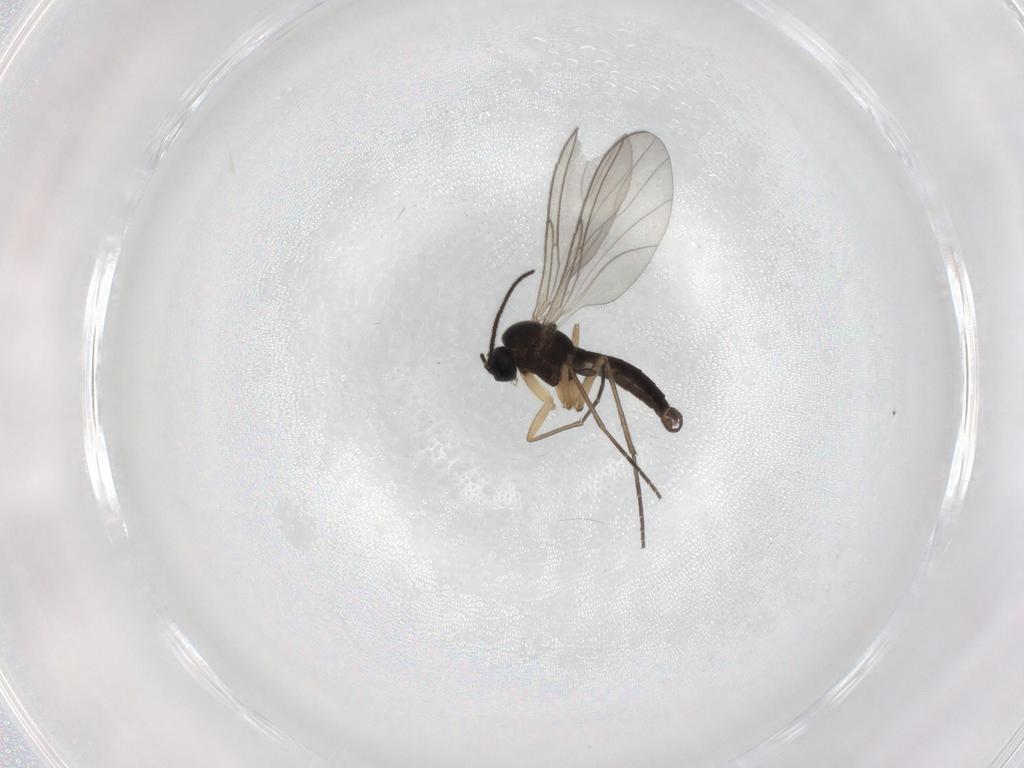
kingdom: Animalia
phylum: Arthropoda
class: Insecta
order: Diptera
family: Sciaridae
